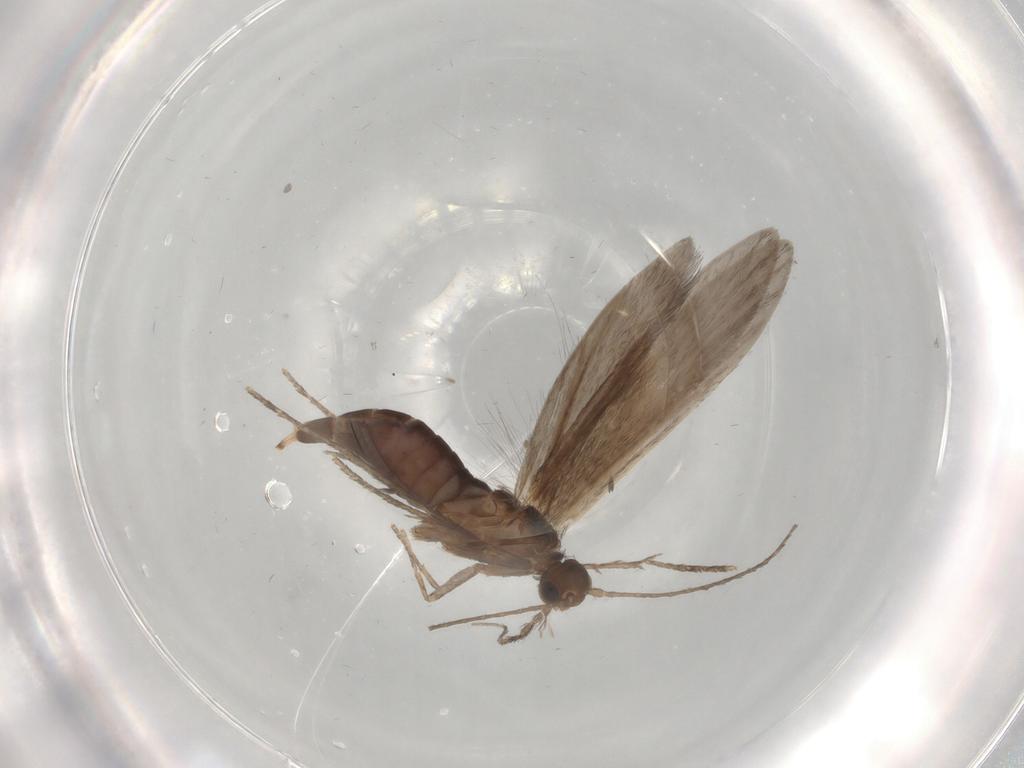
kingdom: Animalia
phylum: Arthropoda
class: Insecta
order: Trichoptera
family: Xiphocentronidae
